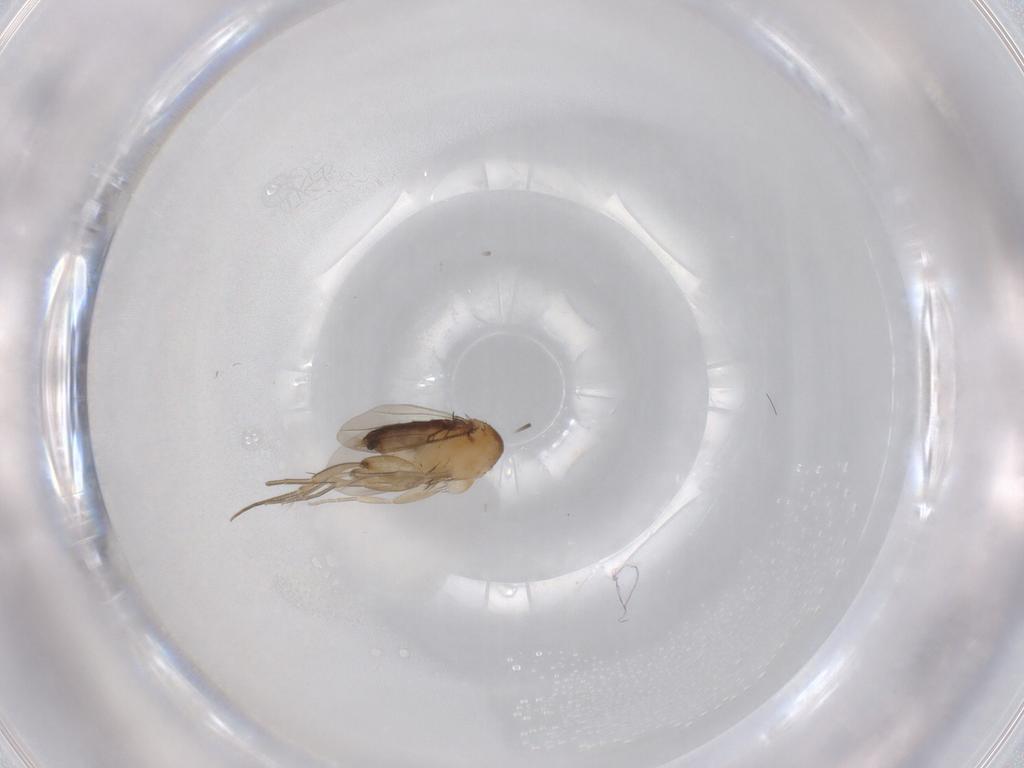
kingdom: Animalia
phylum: Arthropoda
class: Insecta
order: Diptera
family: Phoridae
